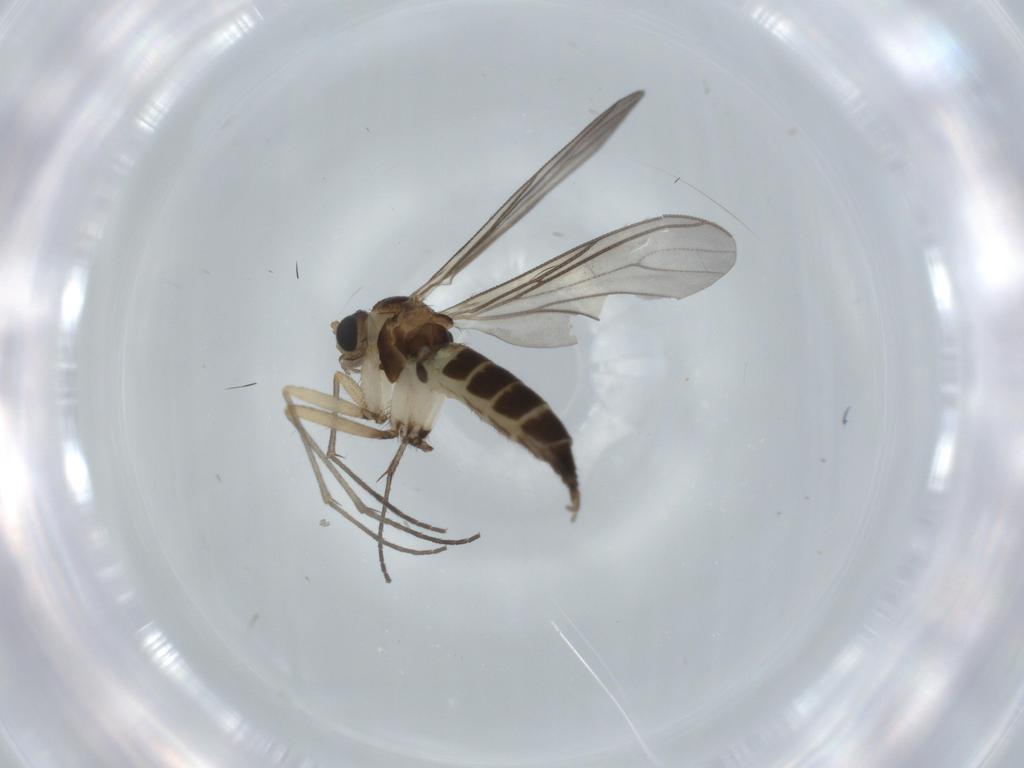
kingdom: Animalia
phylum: Arthropoda
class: Insecta
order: Diptera
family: Sciaridae
